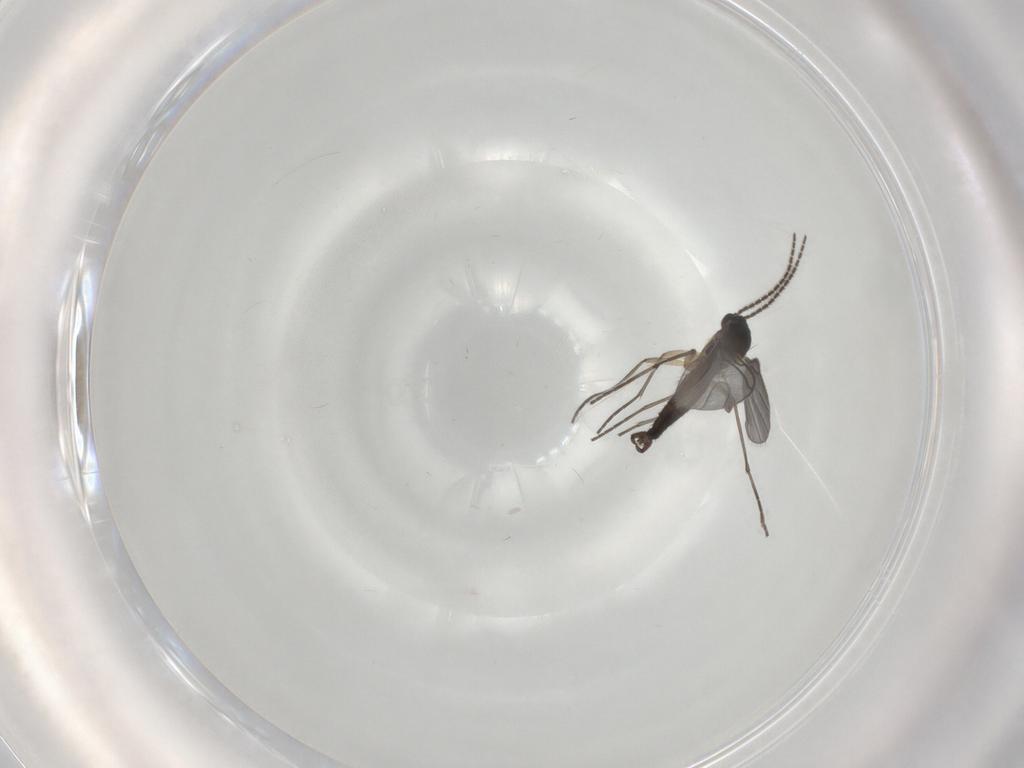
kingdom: Animalia
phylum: Arthropoda
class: Insecta
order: Diptera
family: Sciaridae
